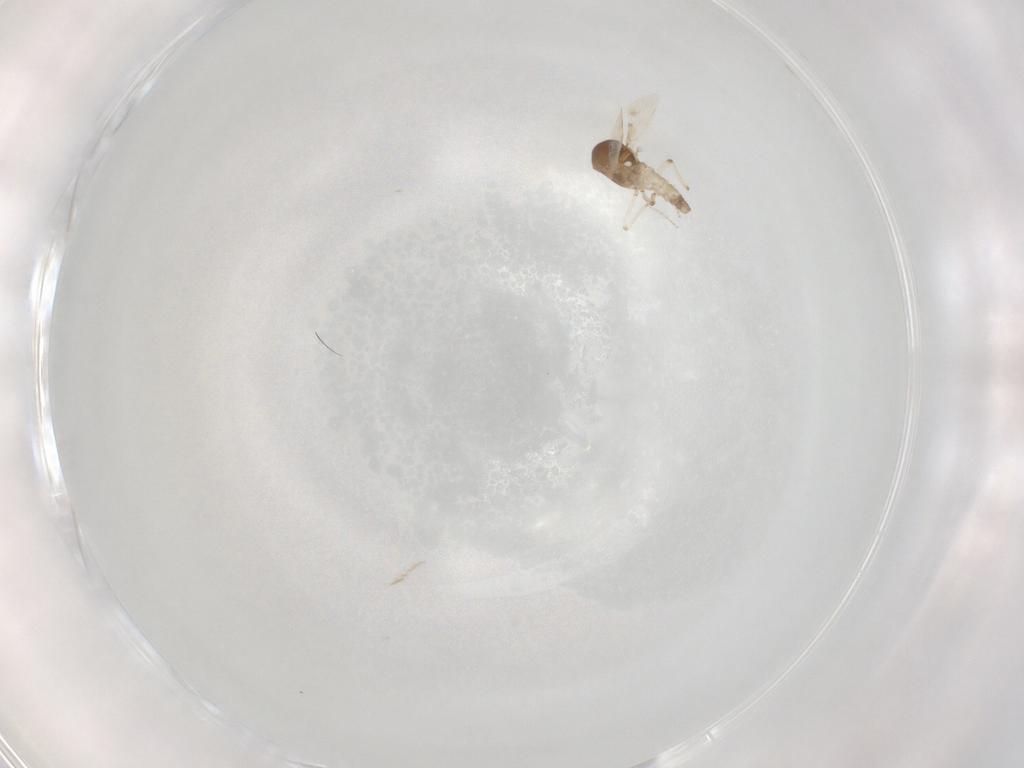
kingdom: Animalia
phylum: Arthropoda
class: Insecta
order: Diptera
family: Ceratopogonidae
